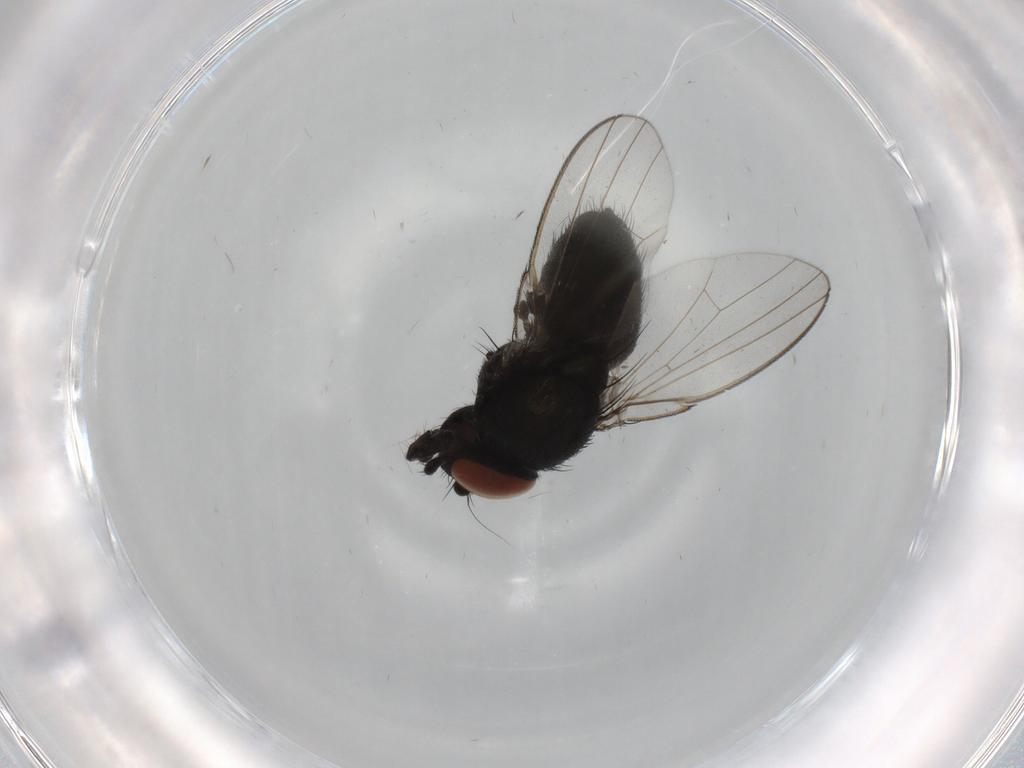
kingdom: Animalia
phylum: Arthropoda
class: Insecta
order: Diptera
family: Milichiidae
